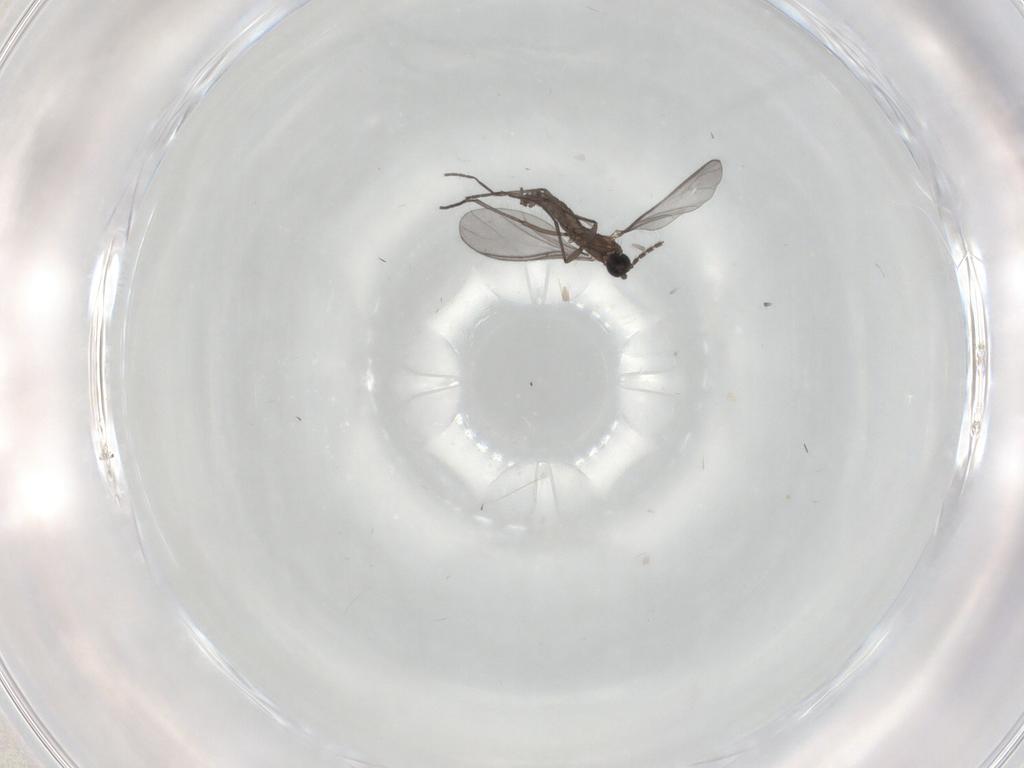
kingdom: Animalia
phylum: Arthropoda
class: Insecta
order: Diptera
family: Sciaridae
